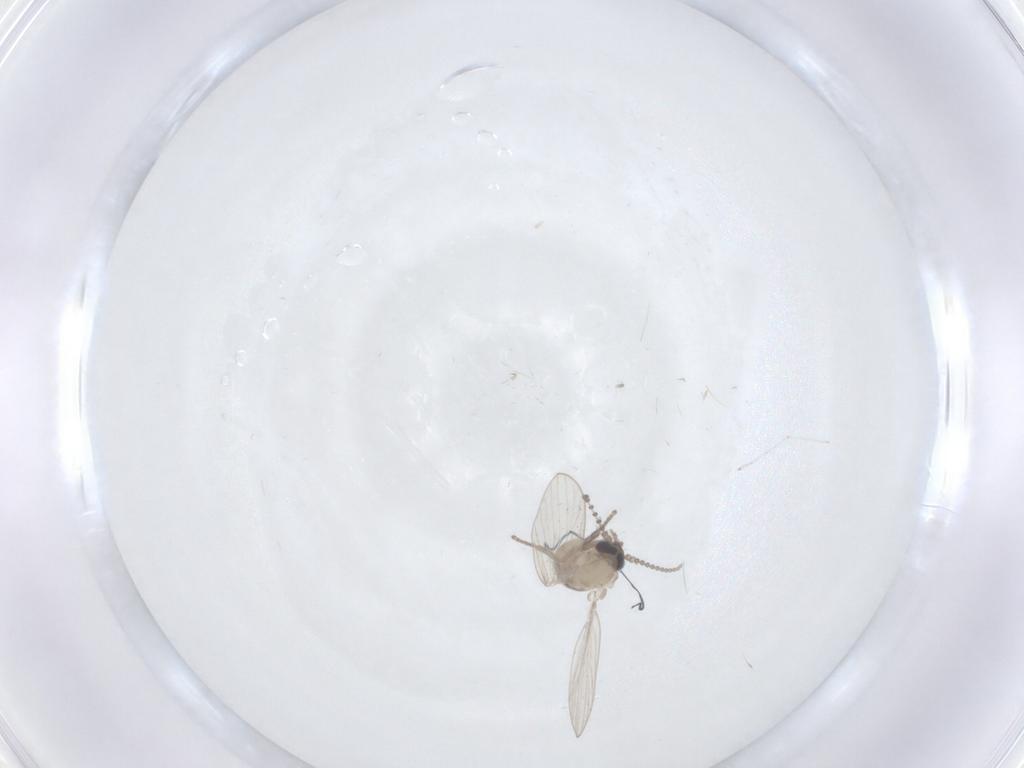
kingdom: Animalia
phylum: Arthropoda
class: Insecta
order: Diptera
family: Psychodidae
